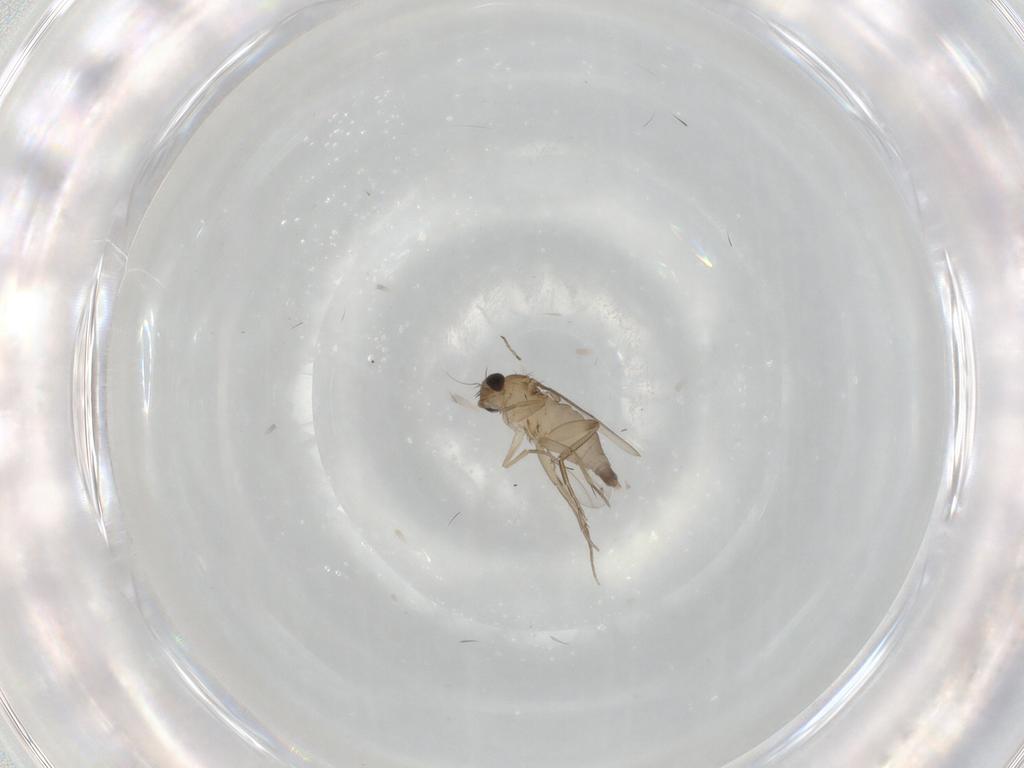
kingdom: Animalia
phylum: Arthropoda
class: Insecta
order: Diptera
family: Phoridae
